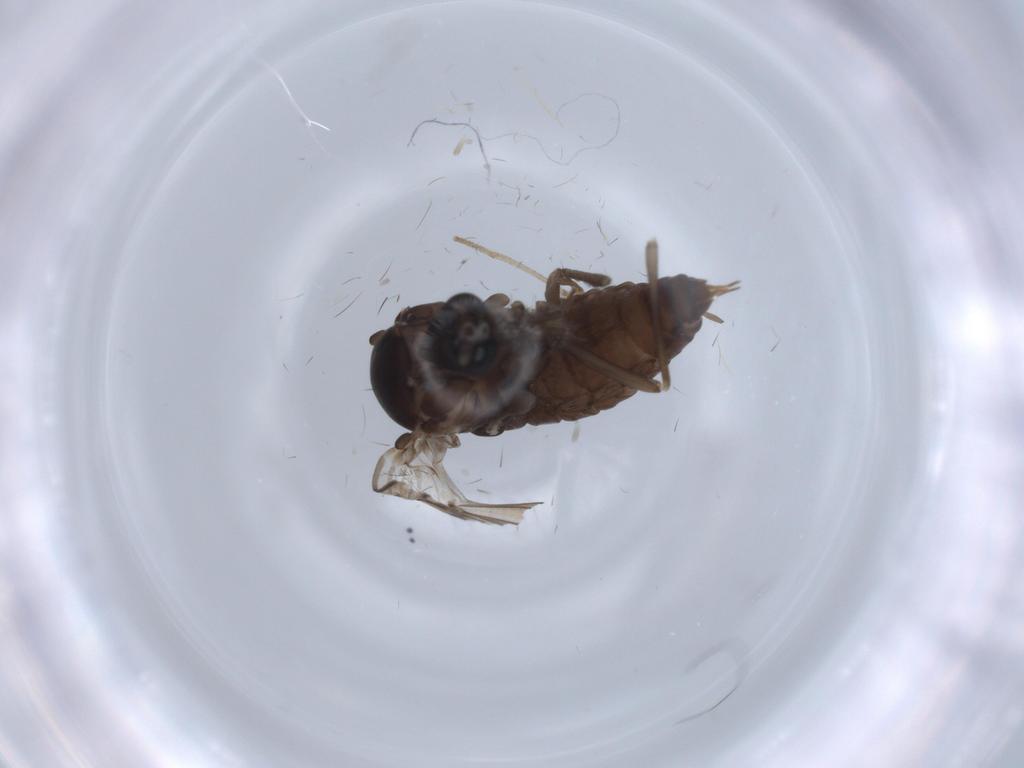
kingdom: Animalia
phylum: Arthropoda
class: Insecta
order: Diptera
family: Psychodidae
